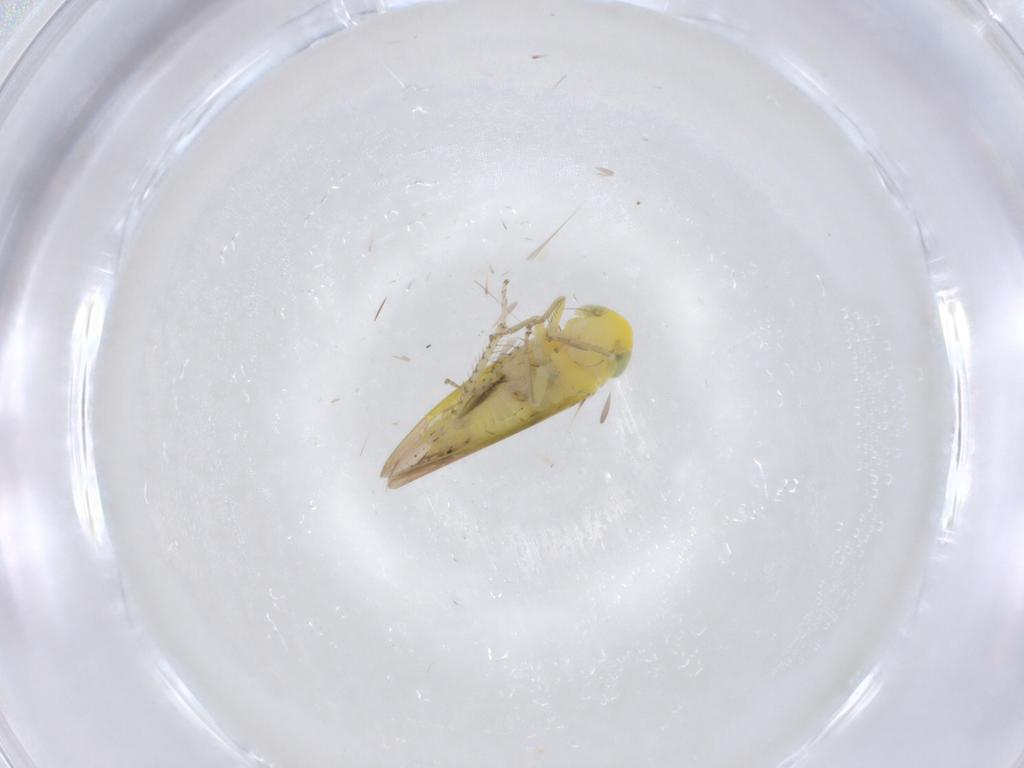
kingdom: Animalia
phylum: Arthropoda
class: Insecta
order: Hemiptera
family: Cicadellidae
